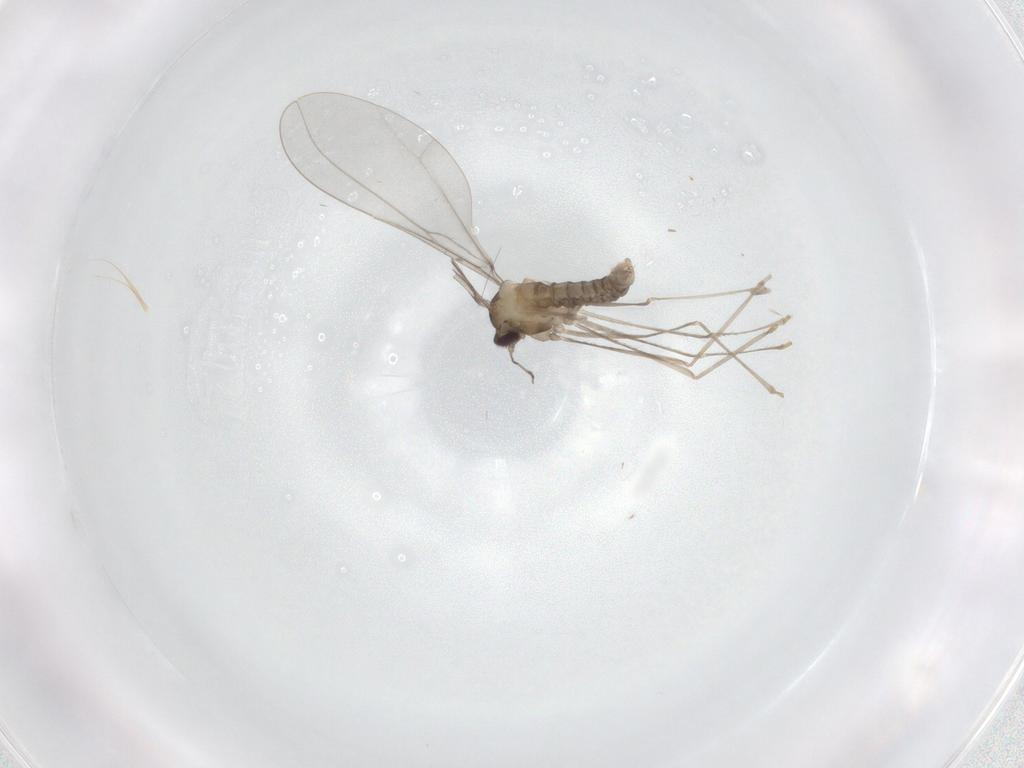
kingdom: Animalia
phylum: Arthropoda
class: Insecta
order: Diptera
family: Cecidomyiidae
